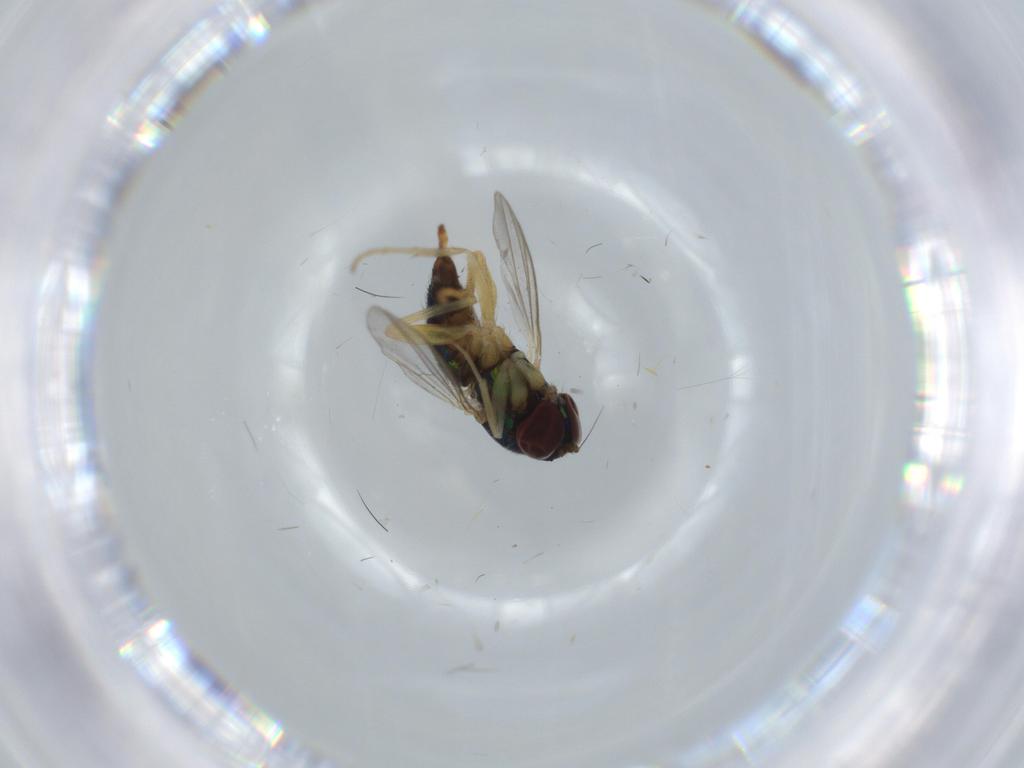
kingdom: Animalia
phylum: Arthropoda
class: Insecta
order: Diptera
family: Dolichopodidae
